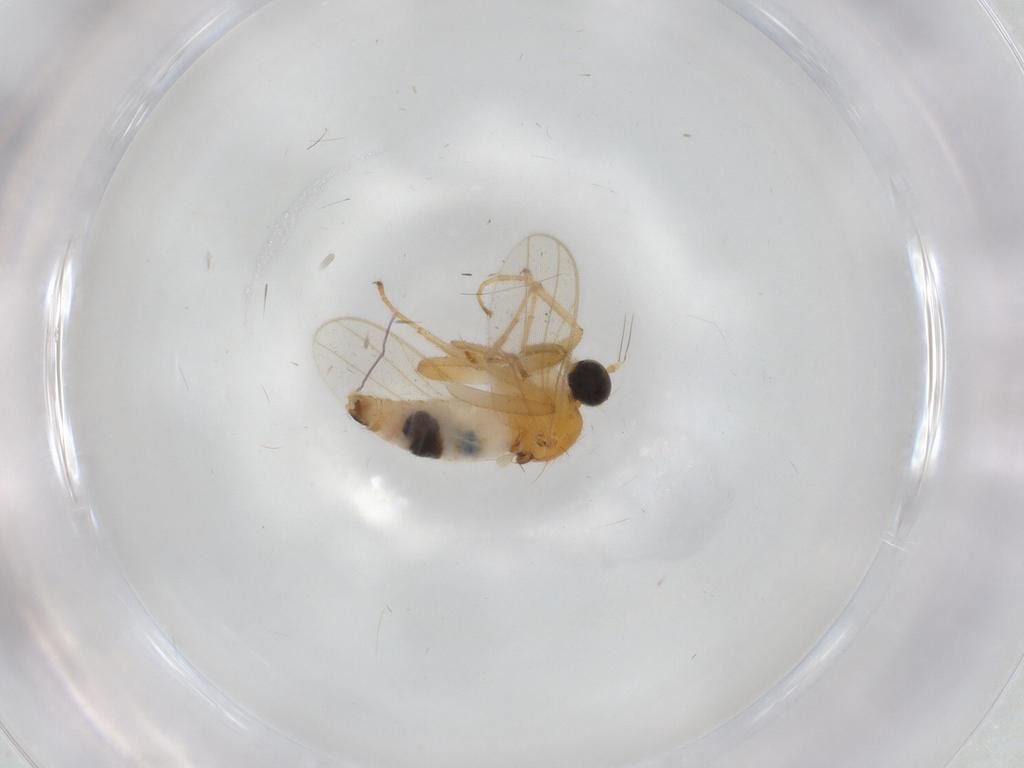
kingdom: Animalia
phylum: Arthropoda
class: Insecta
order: Diptera
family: Hybotidae
